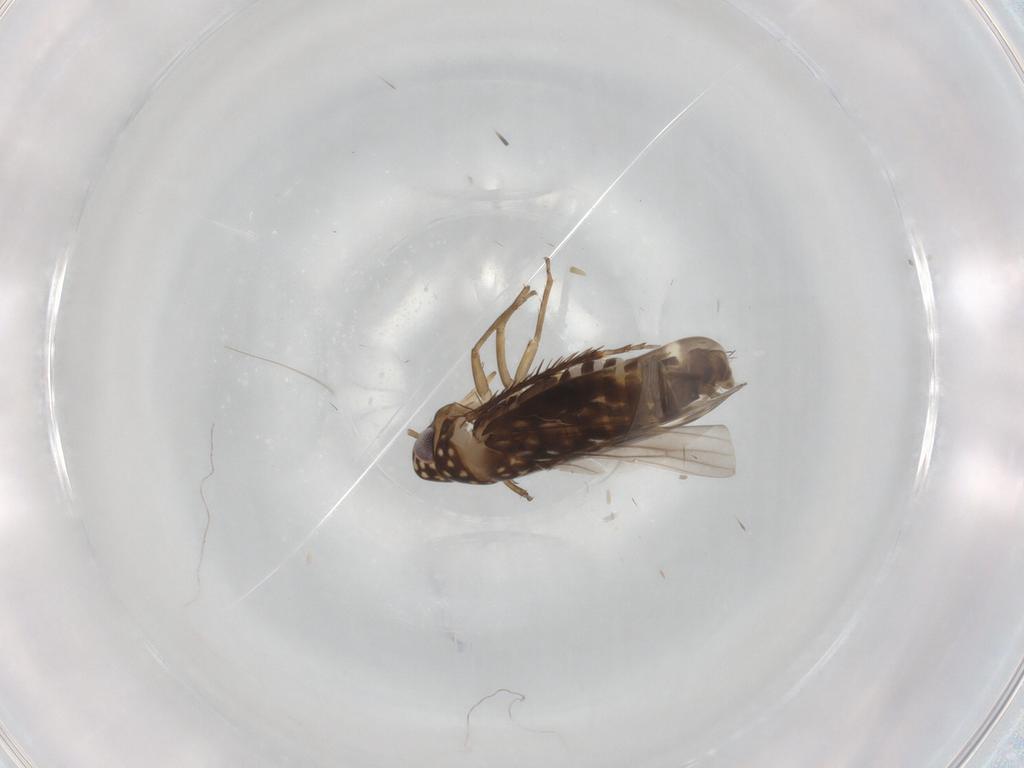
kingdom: Animalia
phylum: Arthropoda
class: Insecta
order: Hemiptera
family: Cicadellidae
